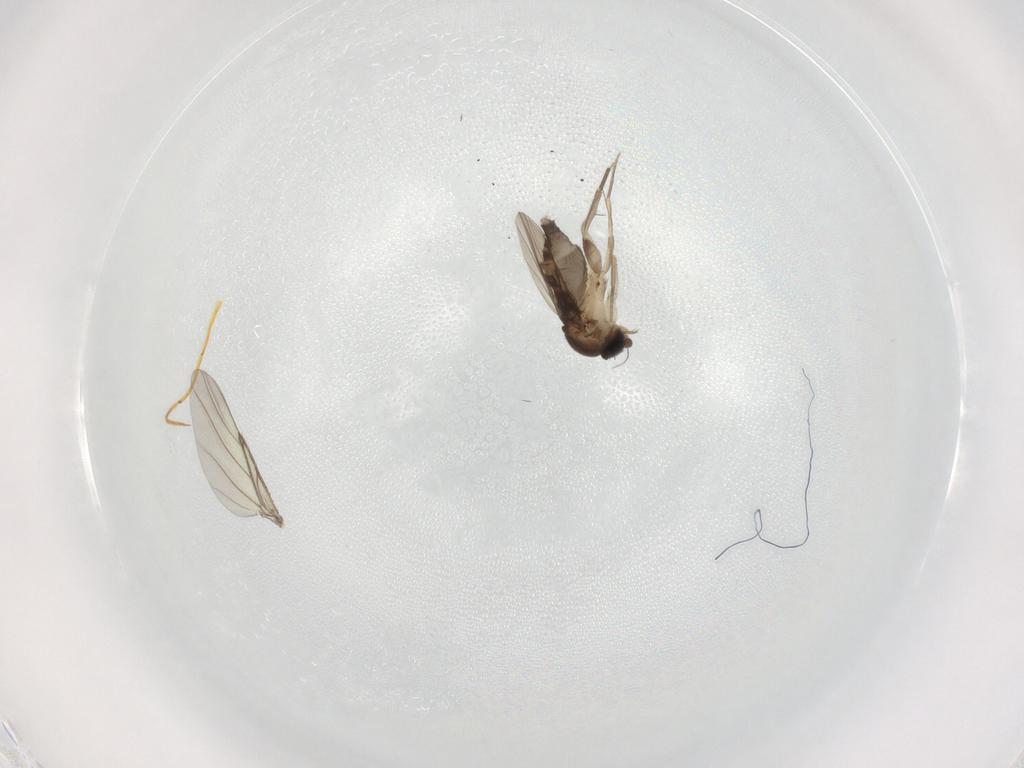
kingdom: Animalia
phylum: Arthropoda
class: Insecta
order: Diptera
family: Phoridae
